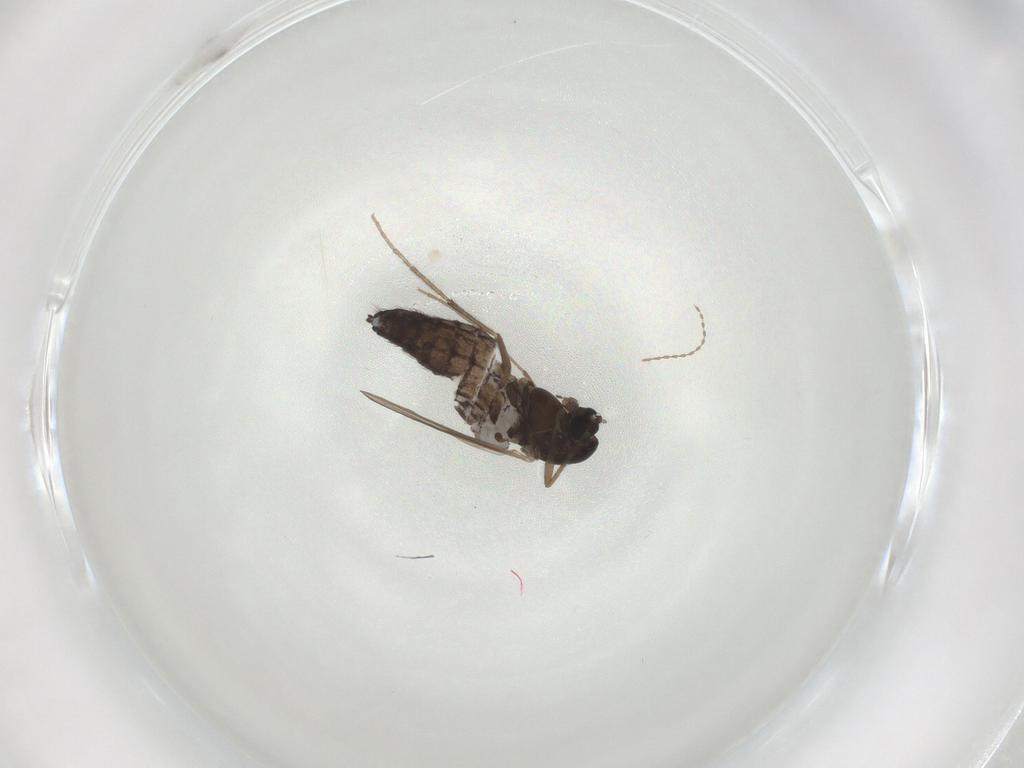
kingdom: Animalia
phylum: Arthropoda
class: Insecta
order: Diptera
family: Chironomidae
